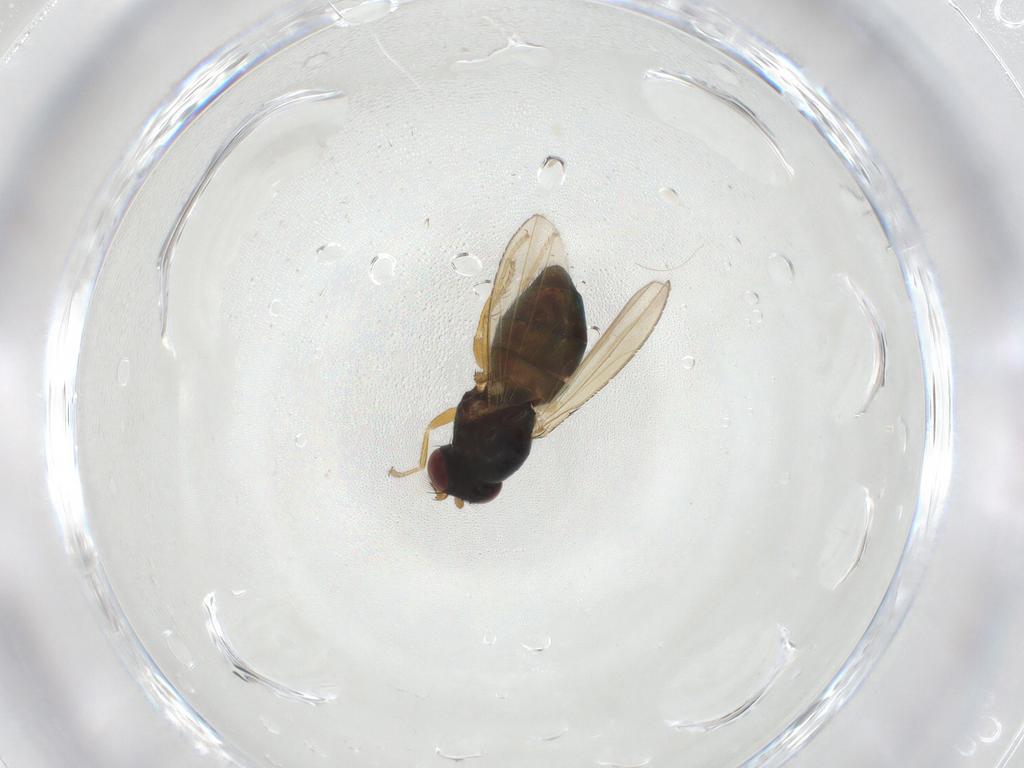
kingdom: Animalia
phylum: Arthropoda
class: Insecta
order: Diptera
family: Ephydridae
